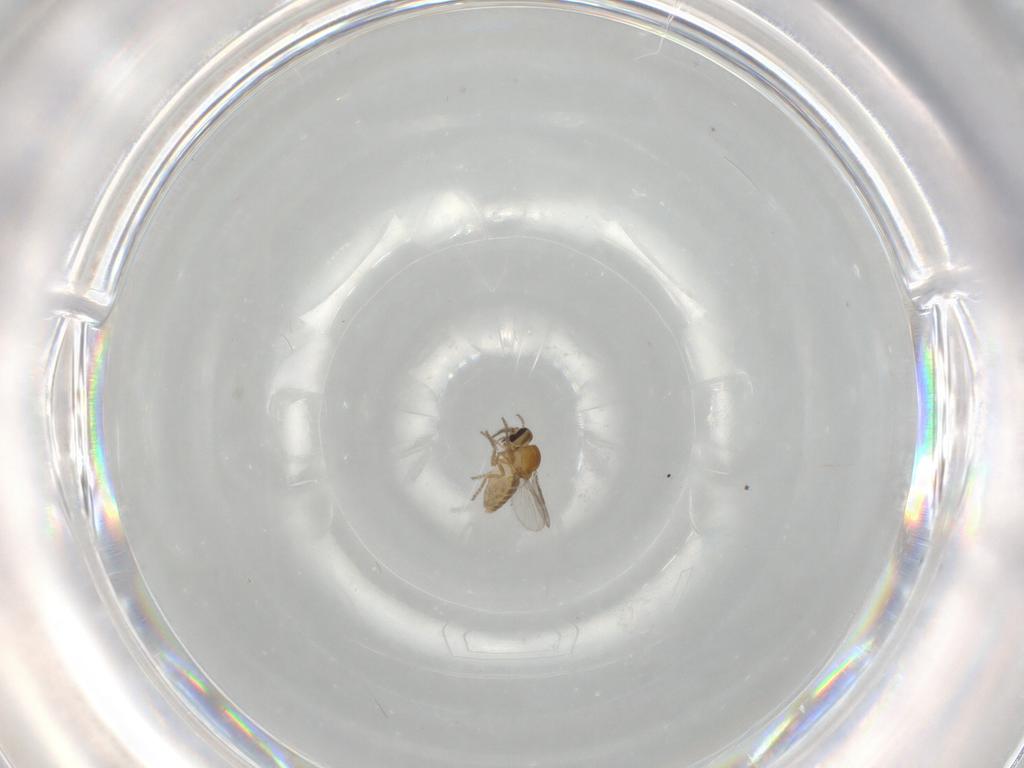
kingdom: Animalia
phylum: Arthropoda
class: Insecta
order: Diptera
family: Ceratopogonidae
